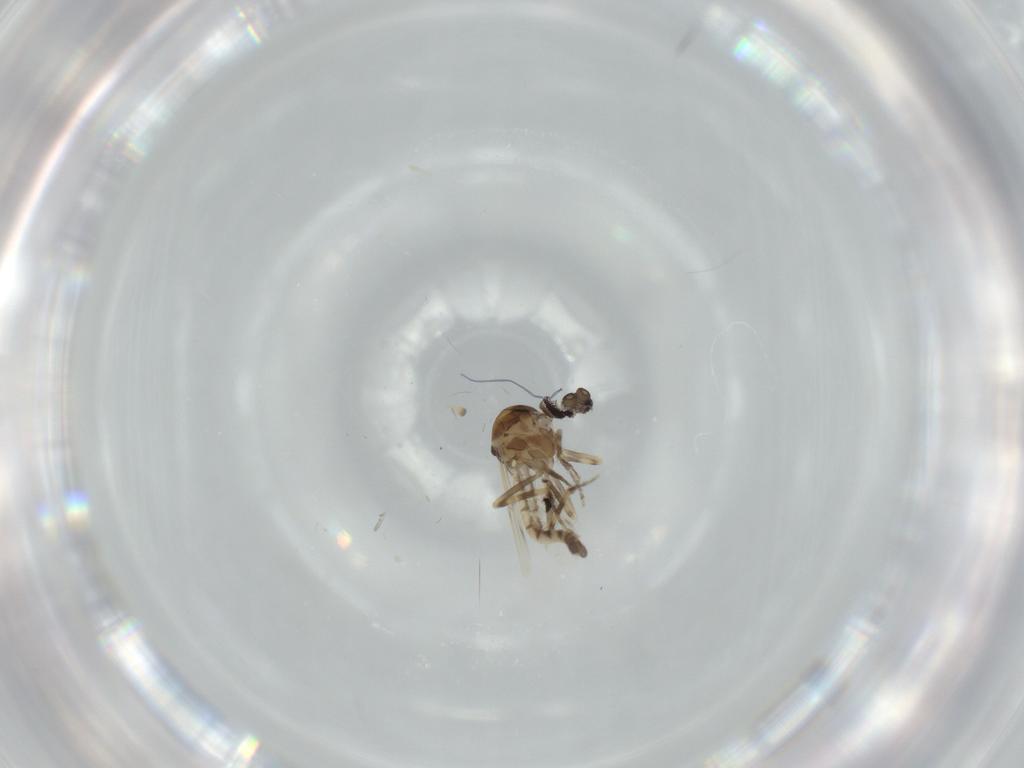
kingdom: Animalia
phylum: Arthropoda
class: Insecta
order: Diptera
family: Ceratopogonidae
